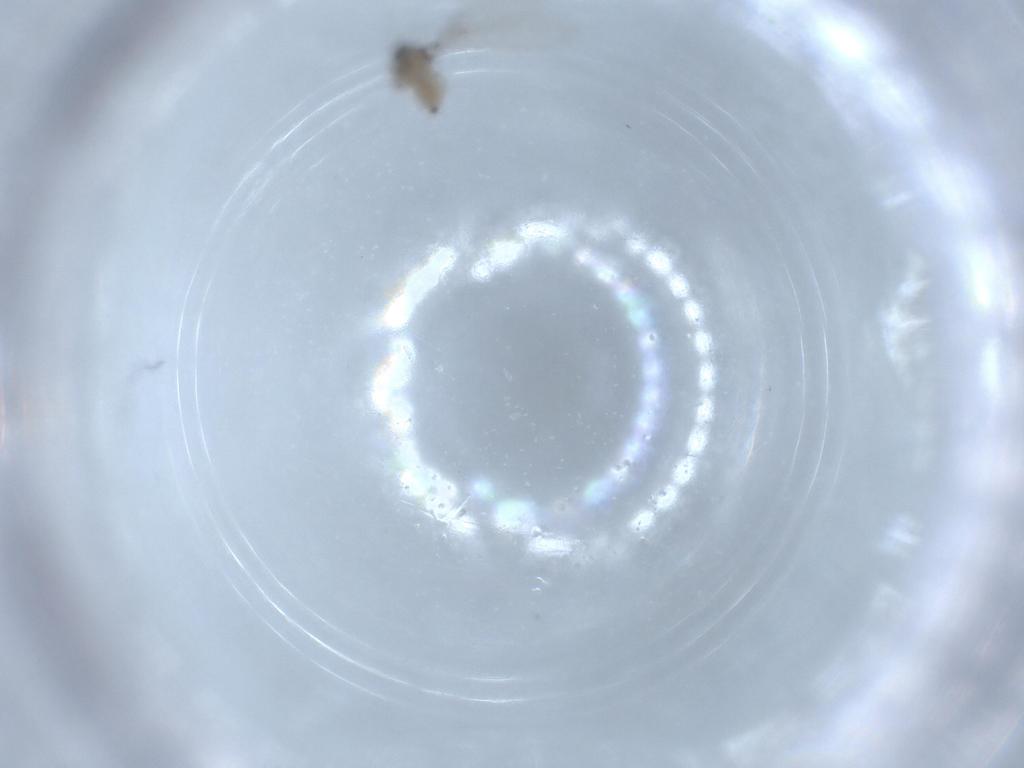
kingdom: Animalia
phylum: Arthropoda
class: Insecta
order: Diptera
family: Cecidomyiidae
